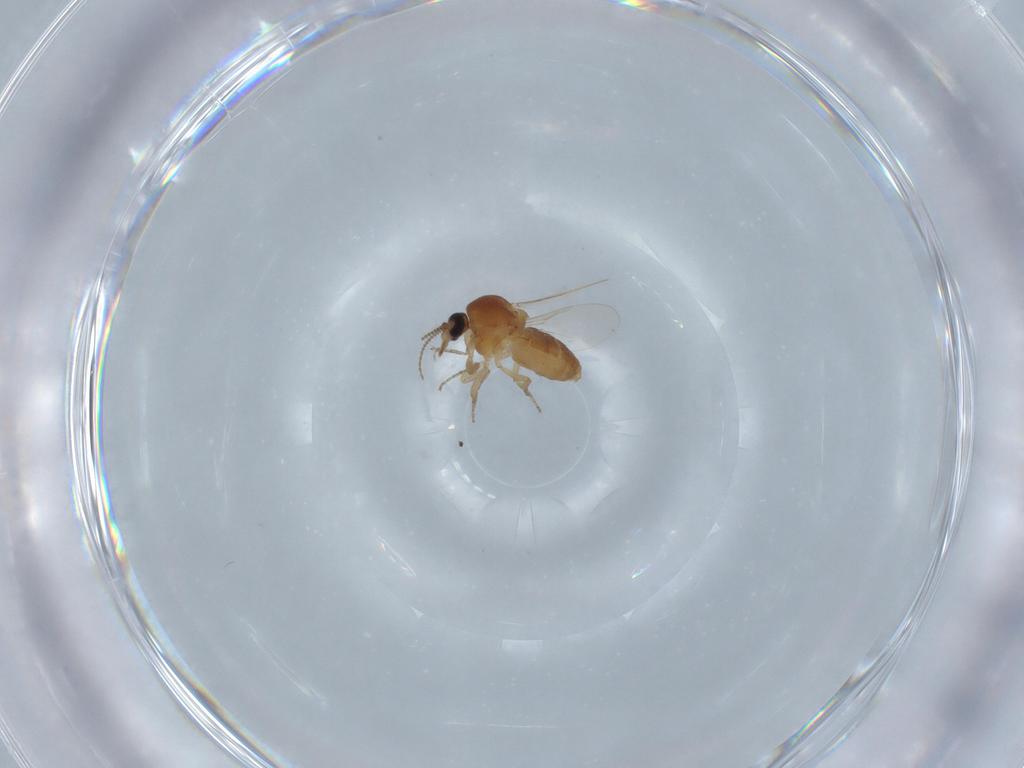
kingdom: Animalia
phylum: Arthropoda
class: Insecta
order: Diptera
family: Ceratopogonidae
